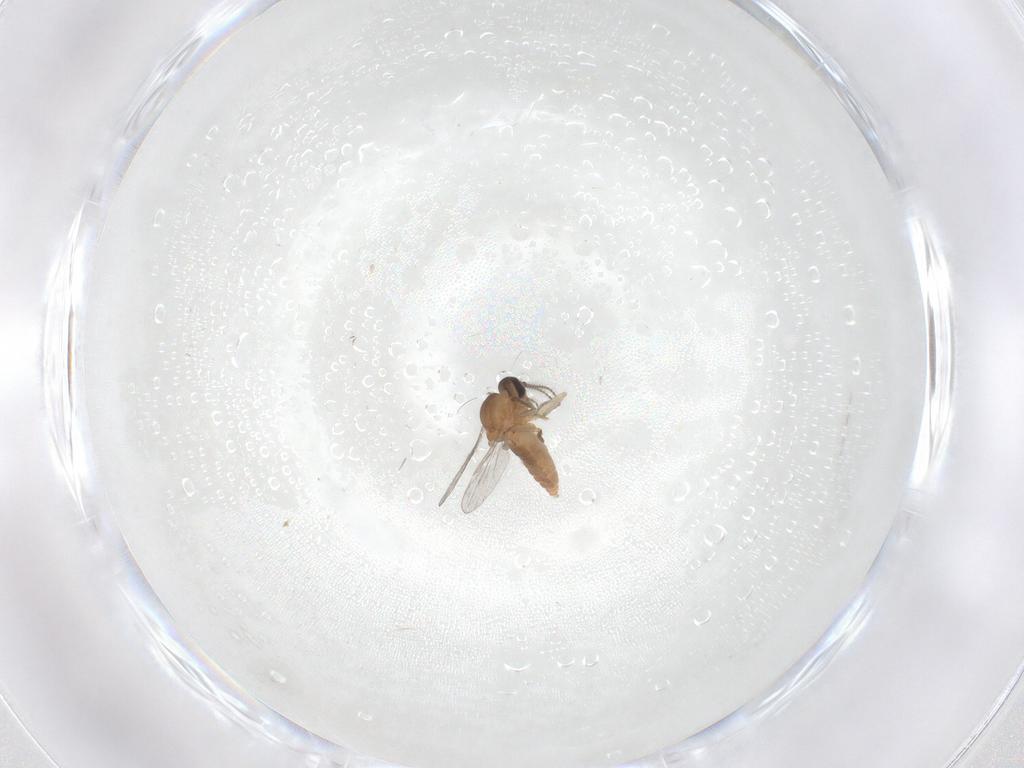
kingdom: Animalia
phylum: Arthropoda
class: Insecta
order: Diptera
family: Ceratopogonidae
